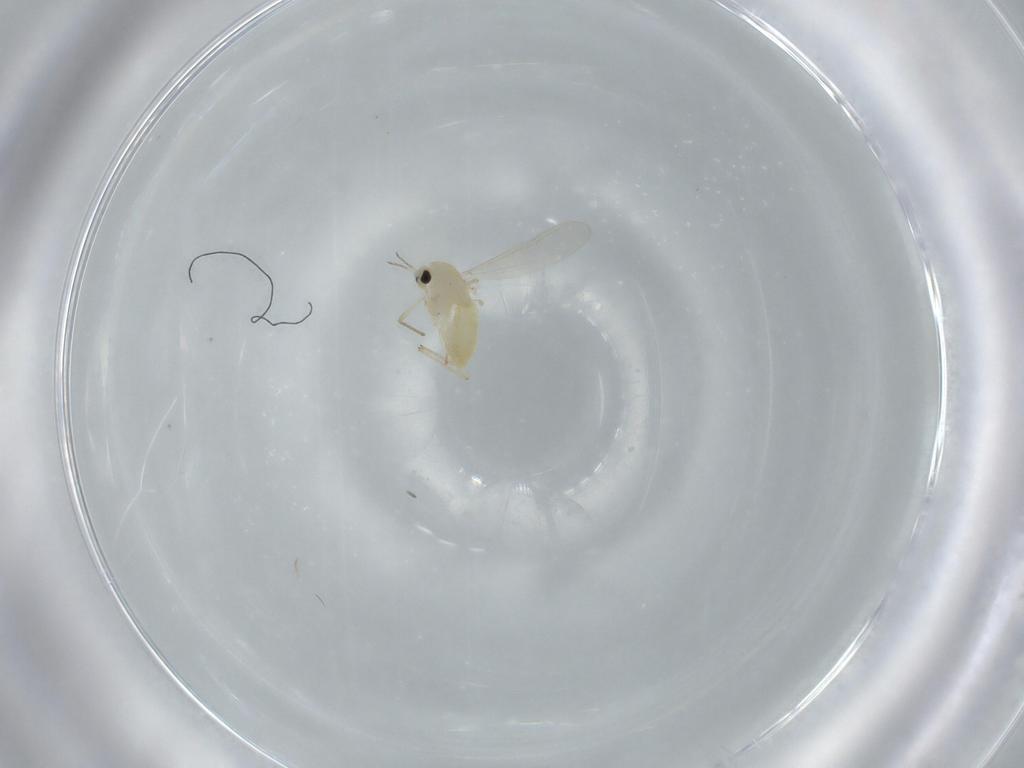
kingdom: Animalia
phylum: Arthropoda
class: Insecta
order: Diptera
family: Chironomidae
